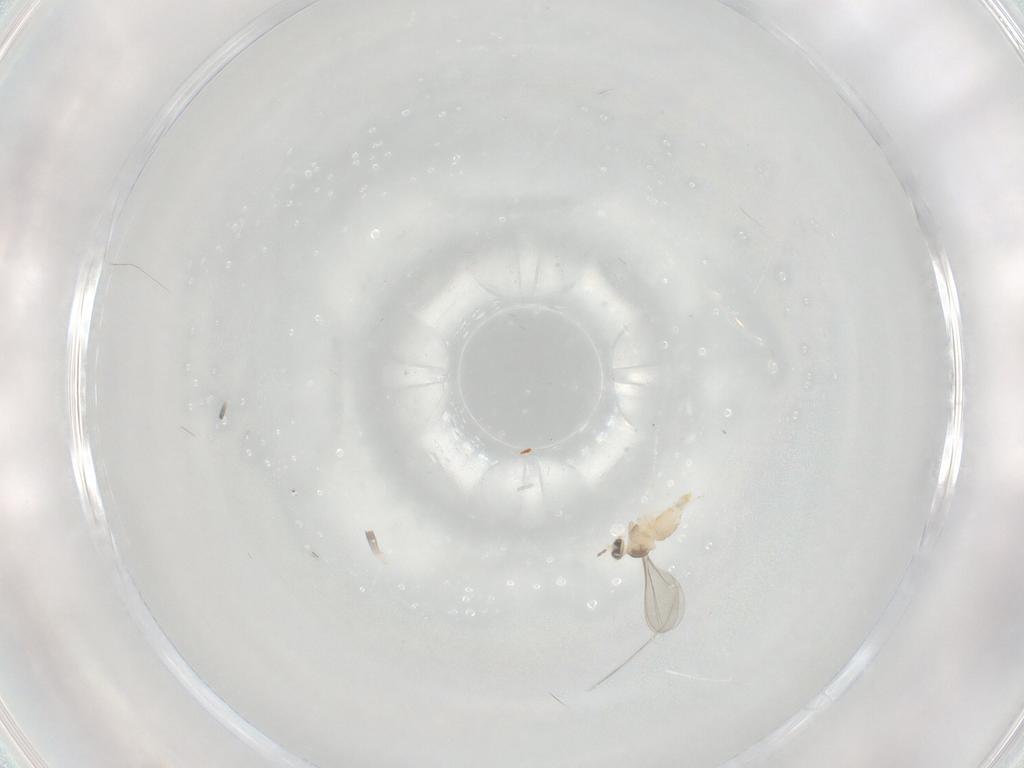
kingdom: Animalia
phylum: Arthropoda
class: Insecta
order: Diptera
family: Cecidomyiidae
